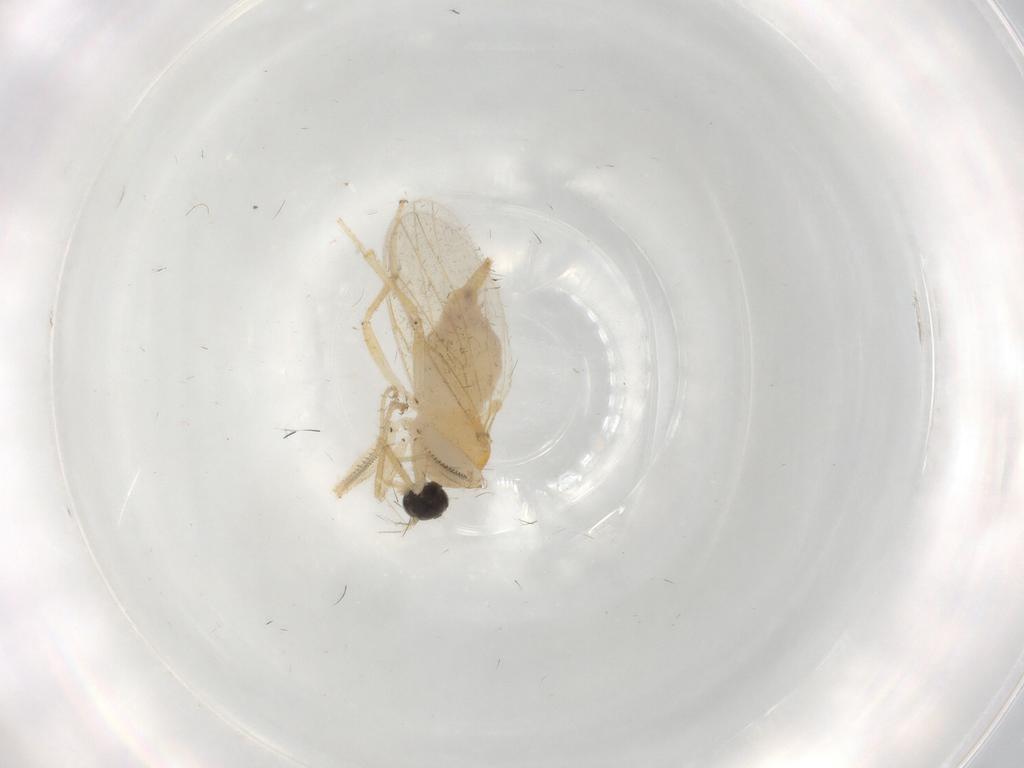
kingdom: Animalia
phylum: Arthropoda
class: Insecta
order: Diptera
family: Hybotidae
